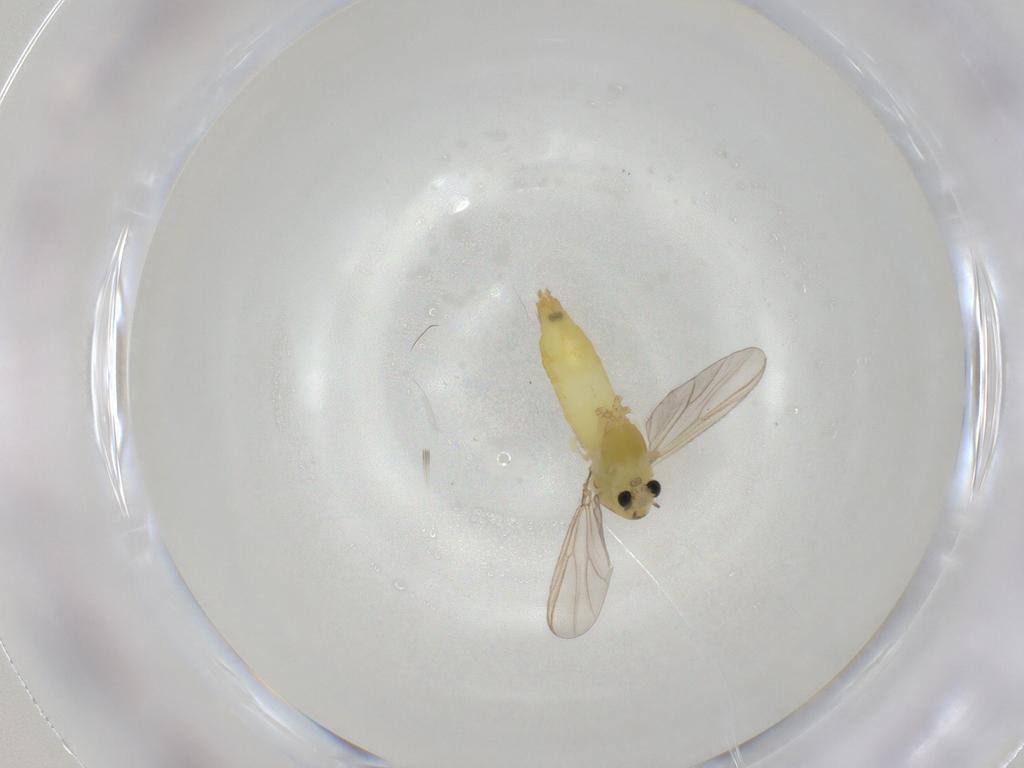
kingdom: Animalia
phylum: Arthropoda
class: Insecta
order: Diptera
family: Chironomidae
